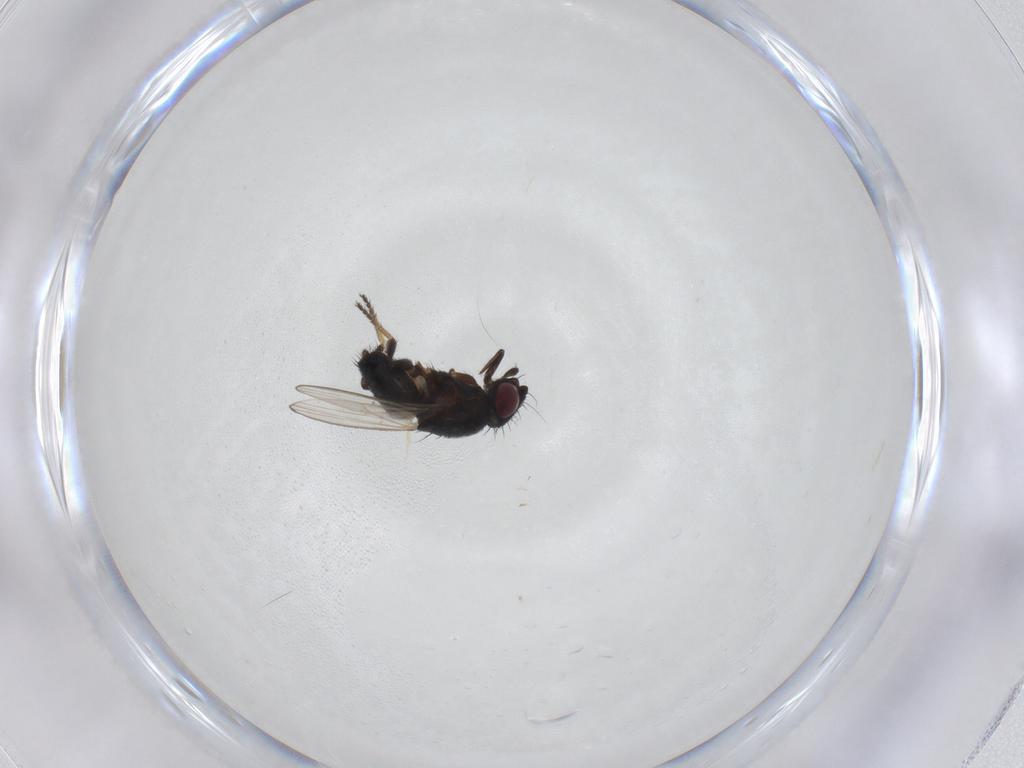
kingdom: Animalia
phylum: Arthropoda
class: Insecta
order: Diptera
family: Milichiidae
